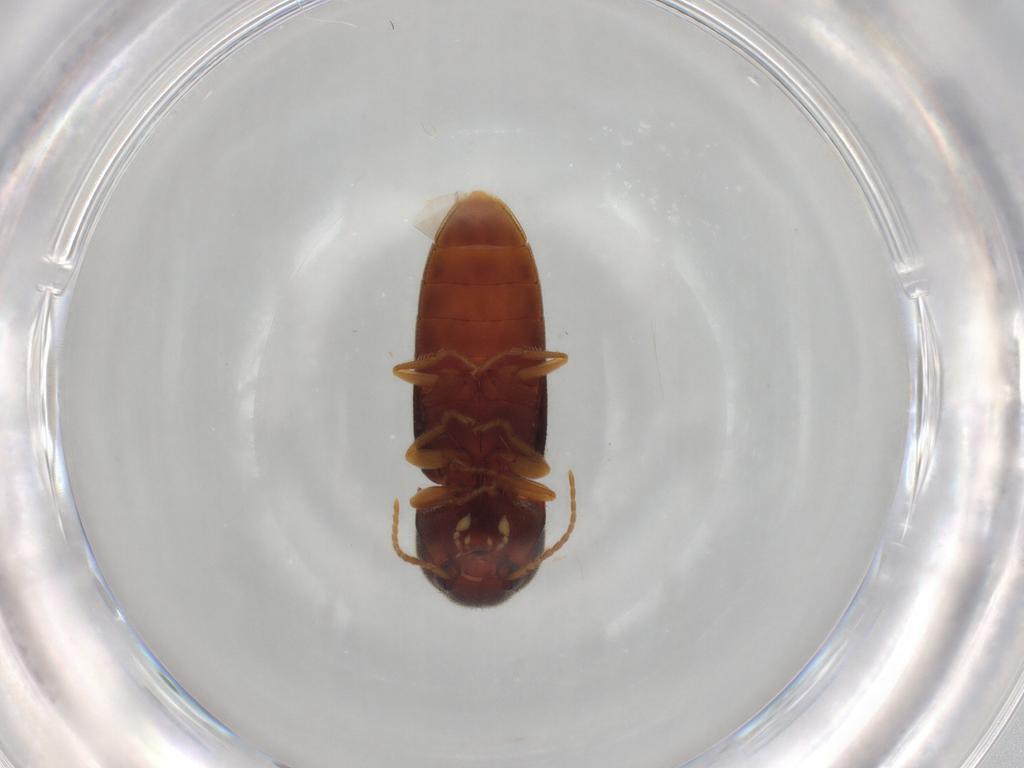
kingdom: Animalia
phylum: Arthropoda
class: Insecta
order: Coleoptera
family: Elateridae
